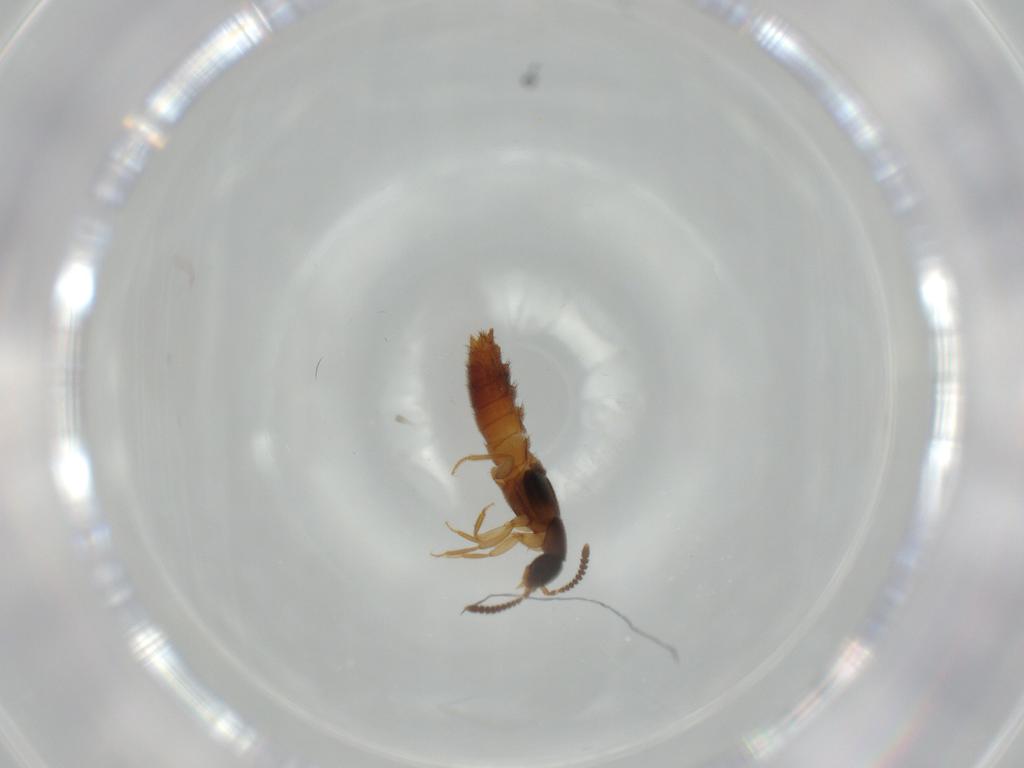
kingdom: Animalia
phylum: Arthropoda
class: Insecta
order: Coleoptera
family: Staphylinidae
